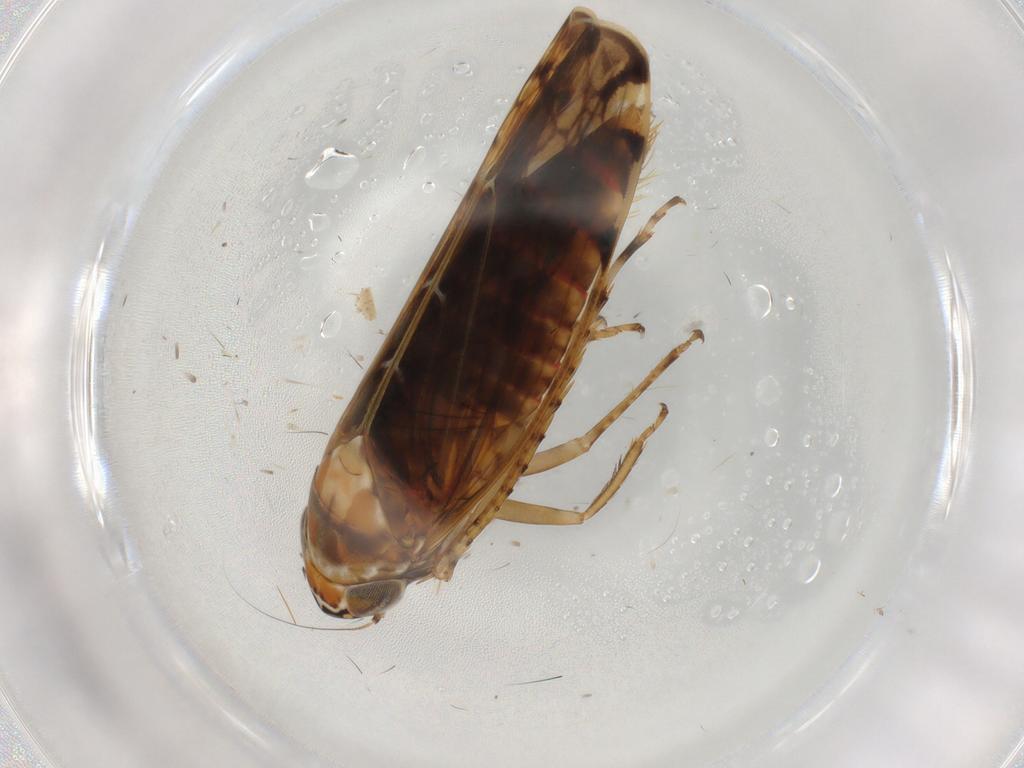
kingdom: Animalia
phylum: Arthropoda
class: Insecta
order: Hemiptera
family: Cicadellidae
